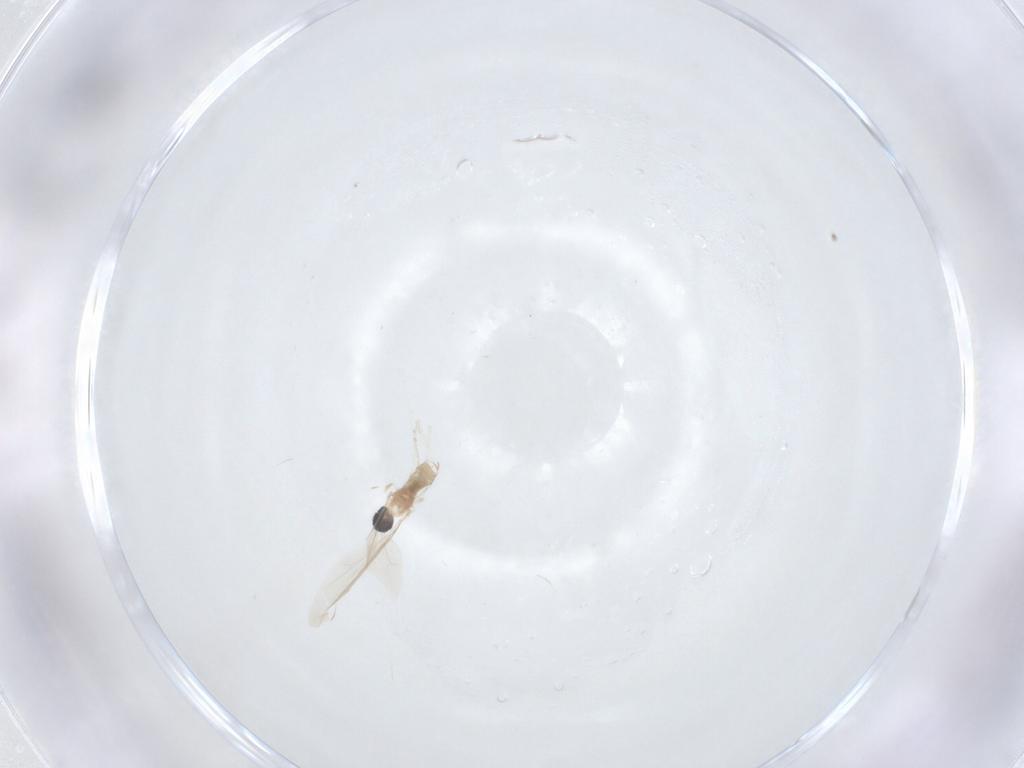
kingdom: Animalia
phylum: Arthropoda
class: Insecta
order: Diptera
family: Cecidomyiidae
